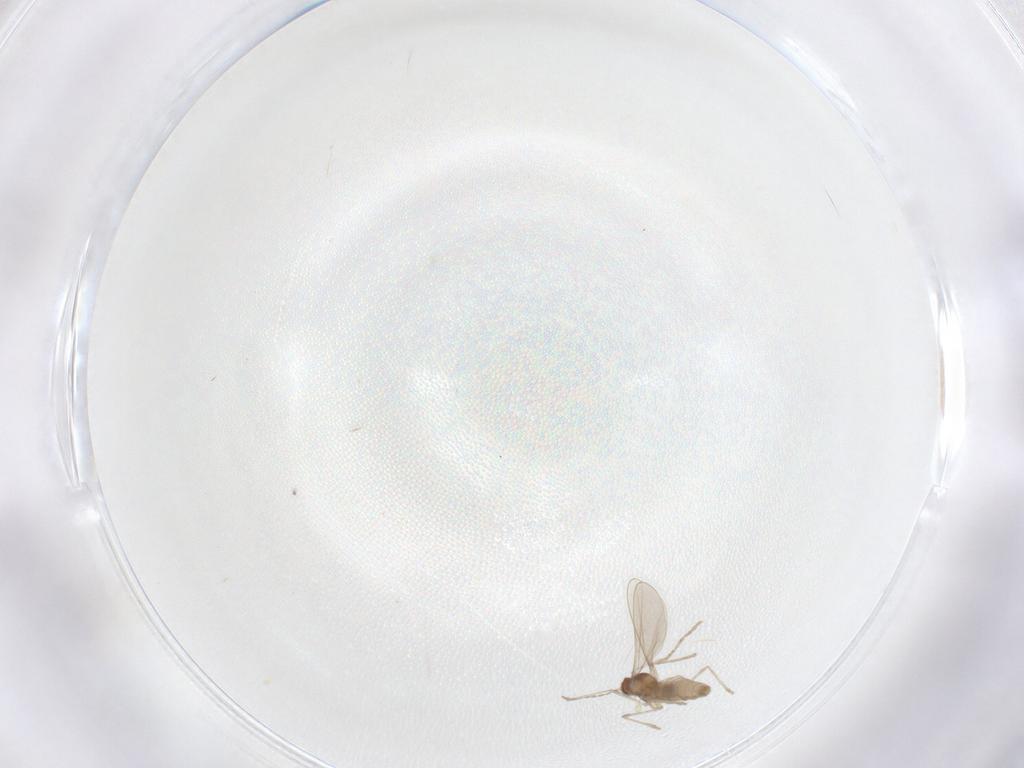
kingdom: Animalia
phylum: Arthropoda
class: Insecta
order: Diptera
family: Cecidomyiidae
